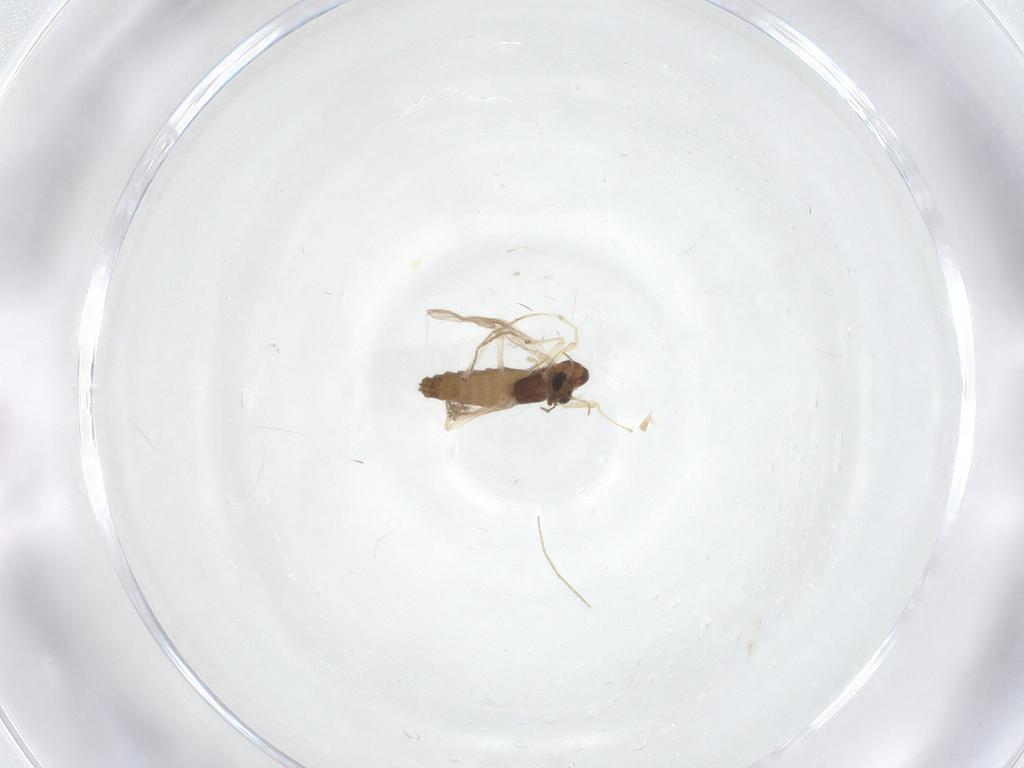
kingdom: Animalia
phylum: Arthropoda
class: Insecta
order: Diptera
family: Chironomidae
